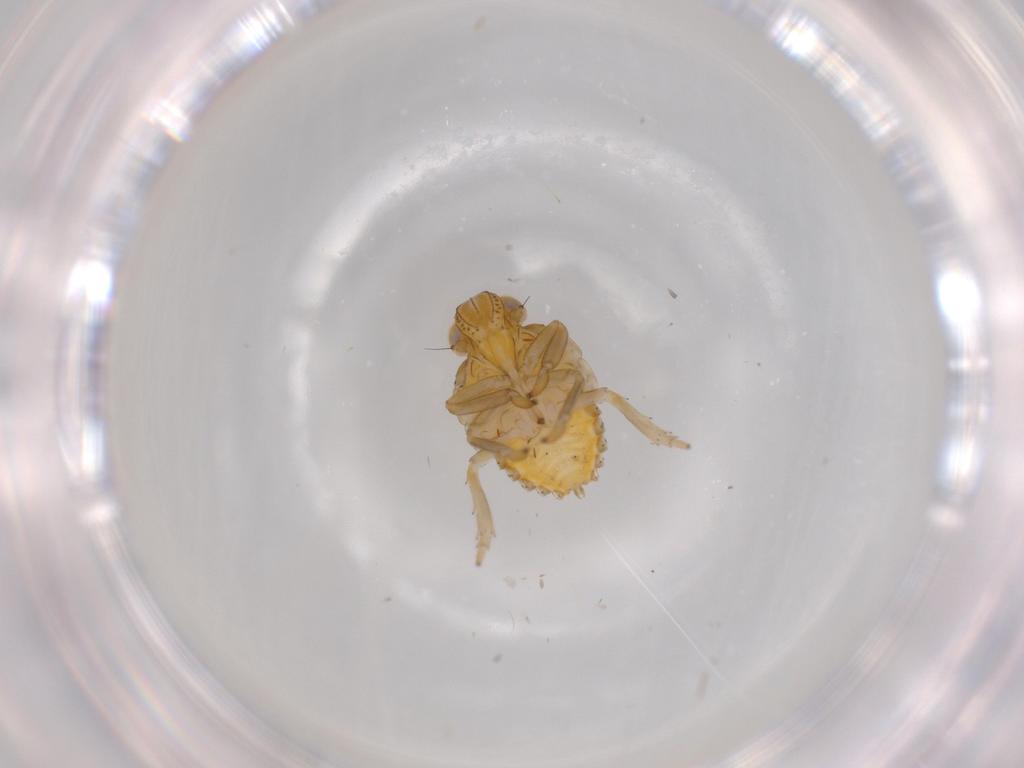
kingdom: Animalia
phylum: Arthropoda
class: Insecta
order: Hemiptera
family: Issidae
